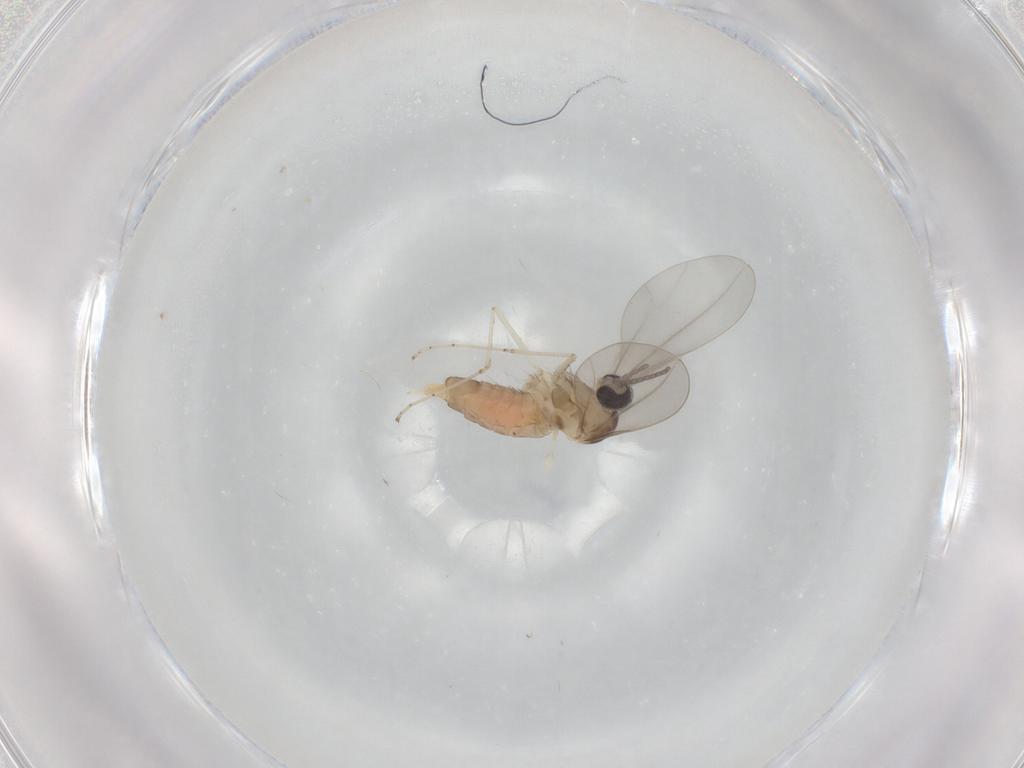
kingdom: Animalia
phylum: Arthropoda
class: Insecta
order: Diptera
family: Cecidomyiidae
